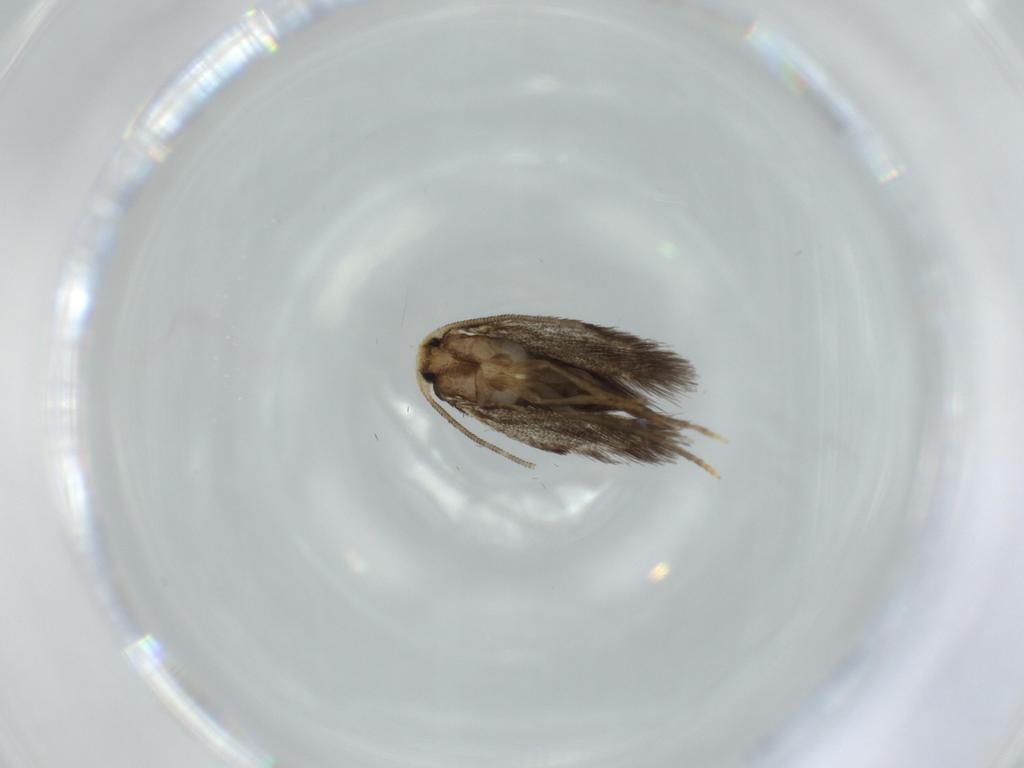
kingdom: Animalia
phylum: Arthropoda
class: Insecta
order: Lepidoptera
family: Nepticulidae
